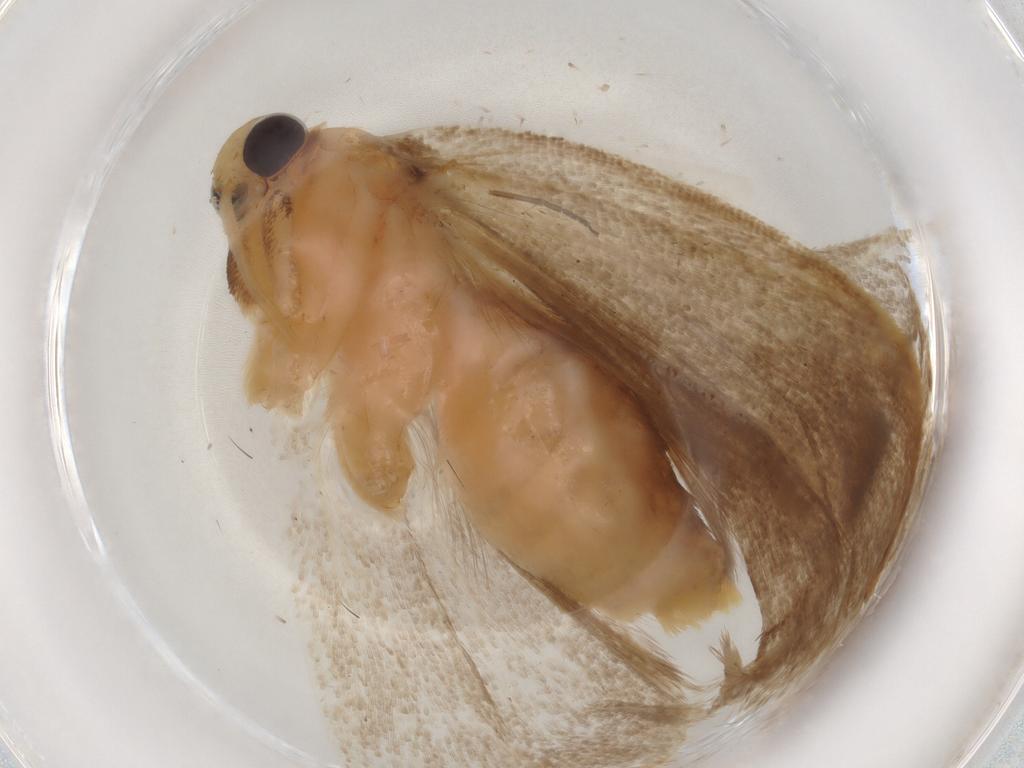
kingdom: Animalia
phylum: Arthropoda
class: Insecta
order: Lepidoptera
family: Depressariidae
